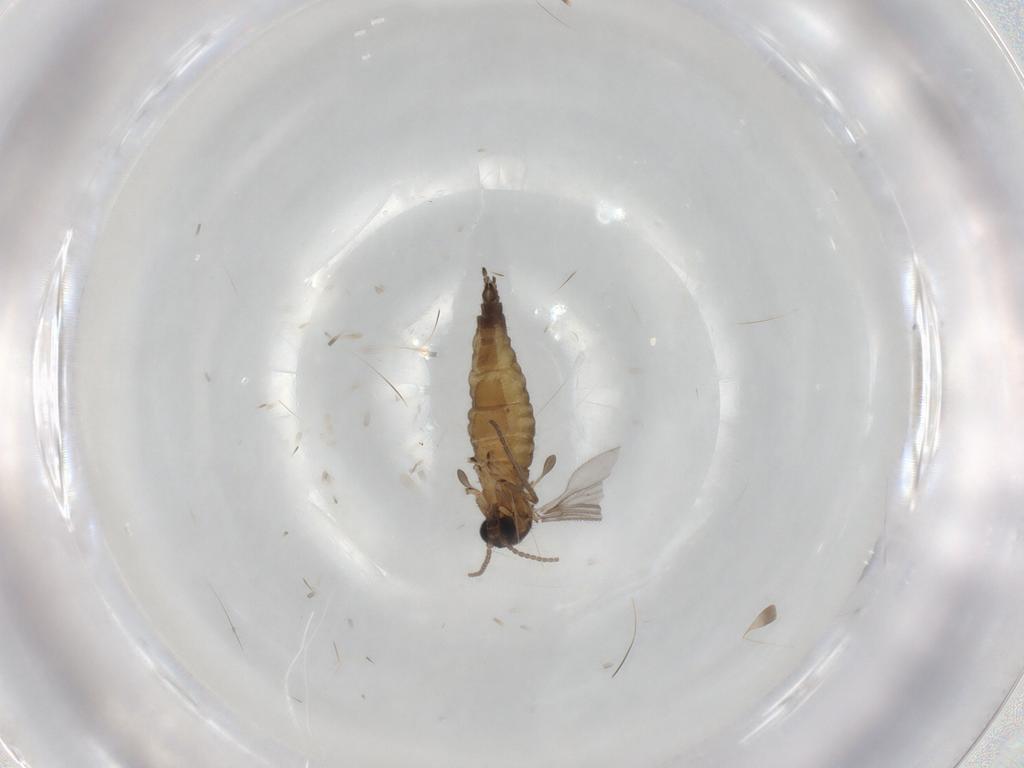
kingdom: Animalia
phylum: Arthropoda
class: Insecta
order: Diptera
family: Sciaridae
